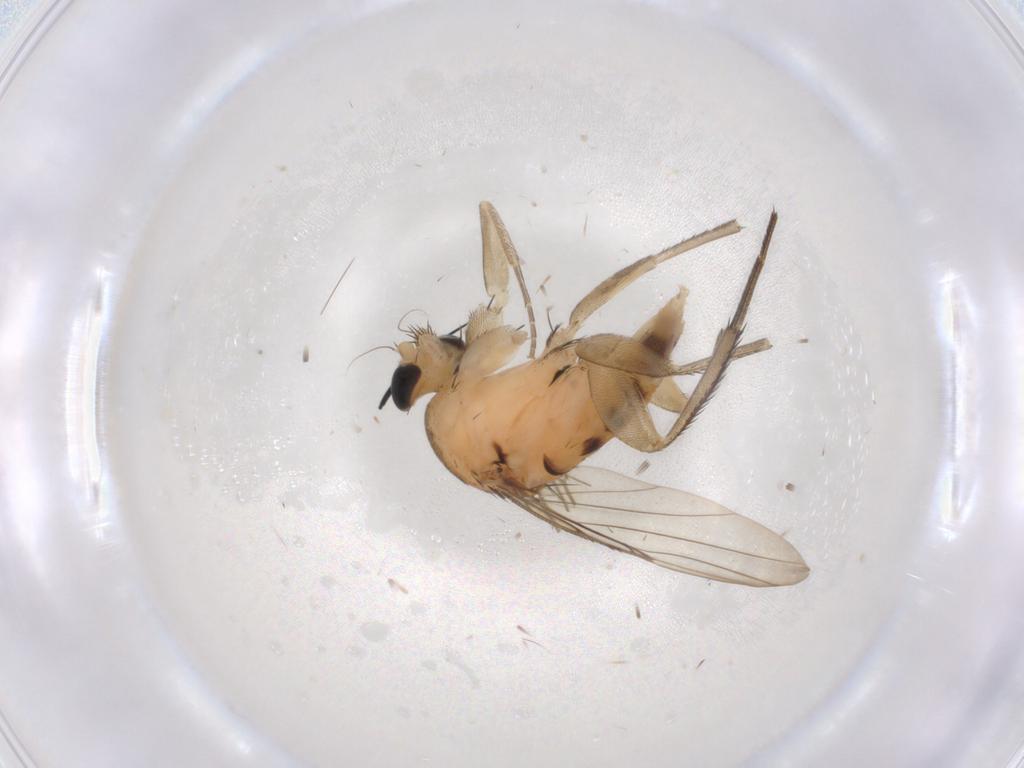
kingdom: Animalia
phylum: Arthropoda
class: Insecta
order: Diptera
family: Phoridae
